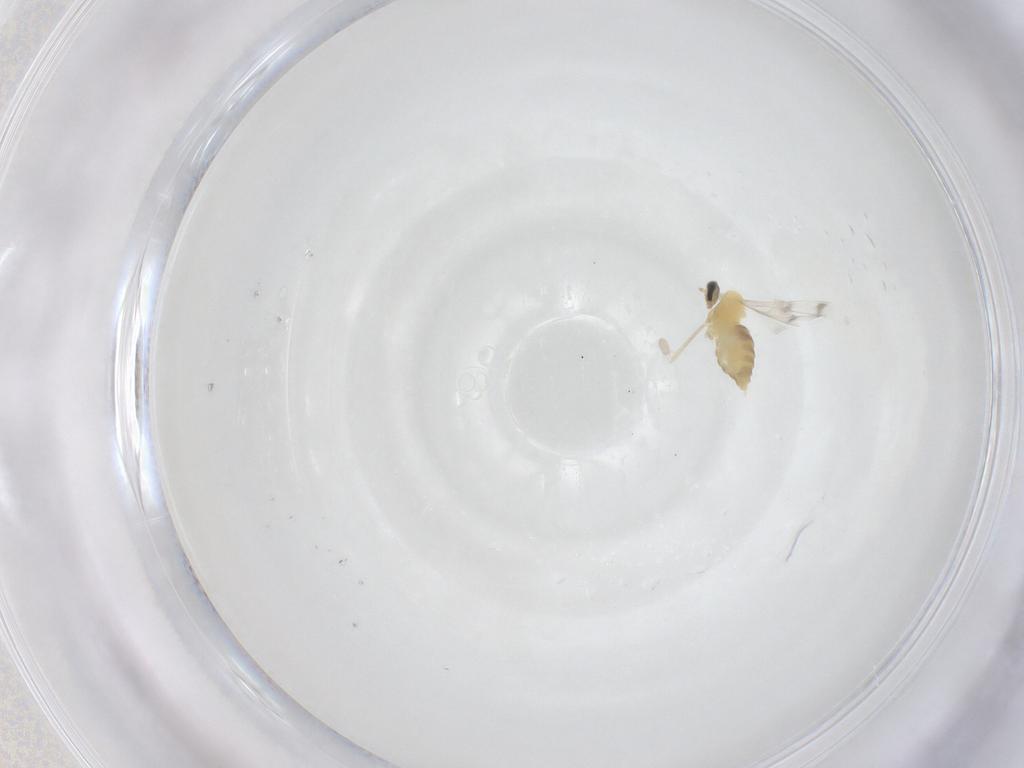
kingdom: Animalia
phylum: Arthropoda
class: Insecta
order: Diptera
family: Cecidomyiidae
